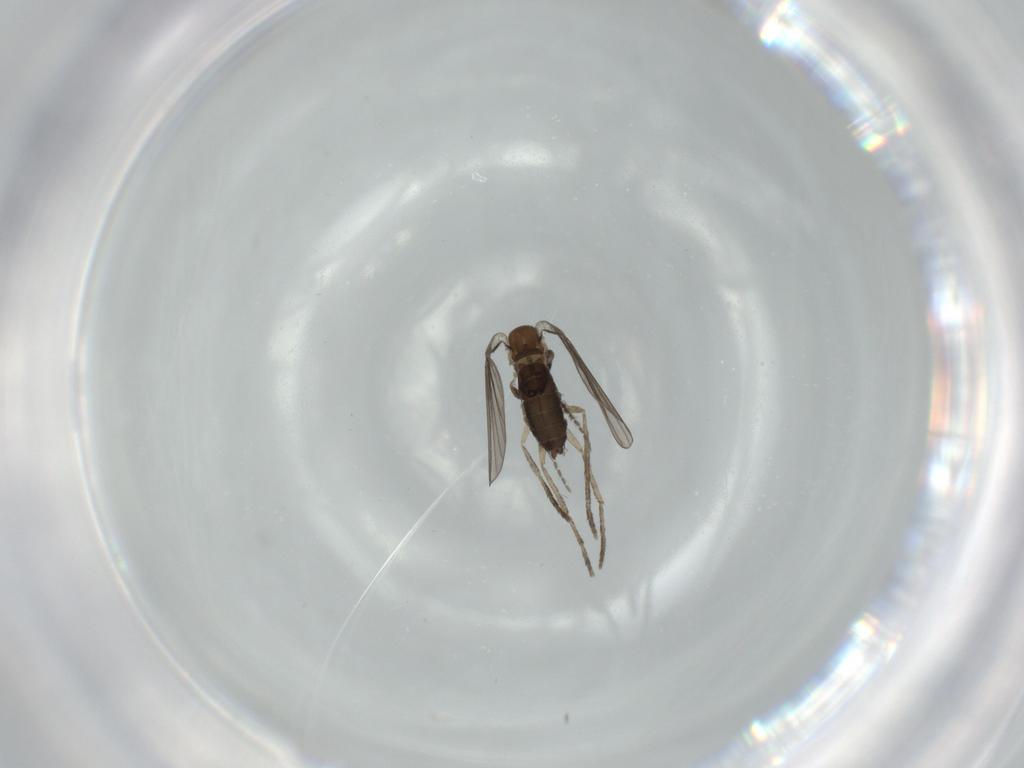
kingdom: Animalia
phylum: Arthropoda
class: Insecta
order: Diptera
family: Psychodidae
